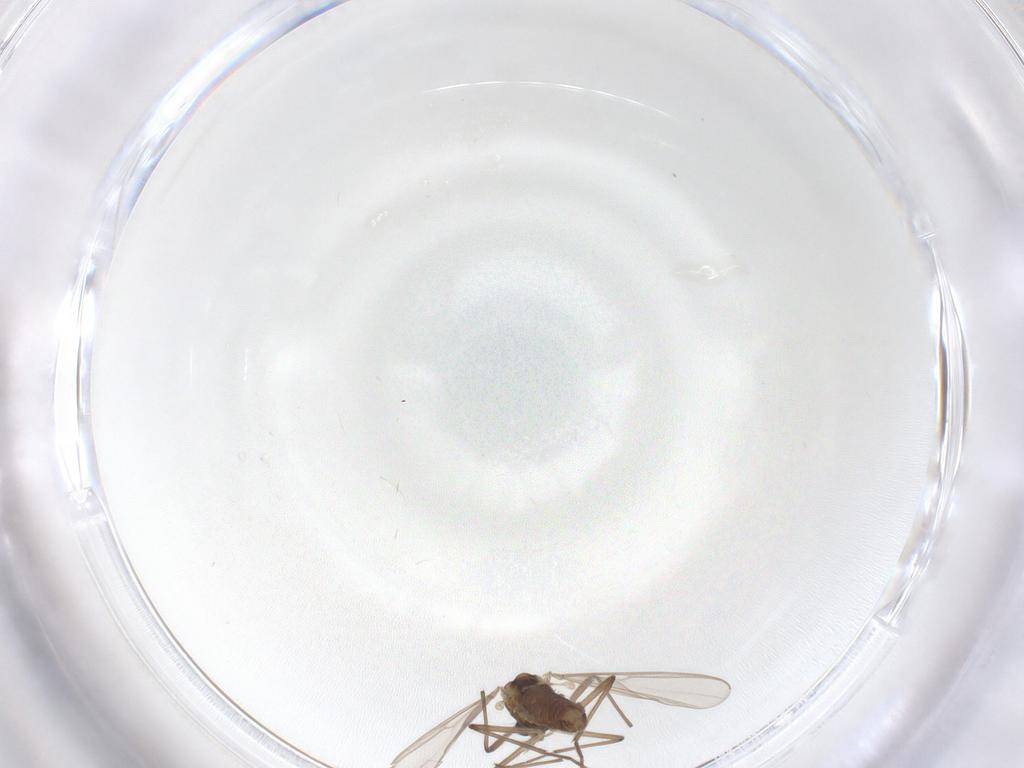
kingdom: Animalia
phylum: Arthropoda
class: Insecta
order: Diptera
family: Chironomidae
